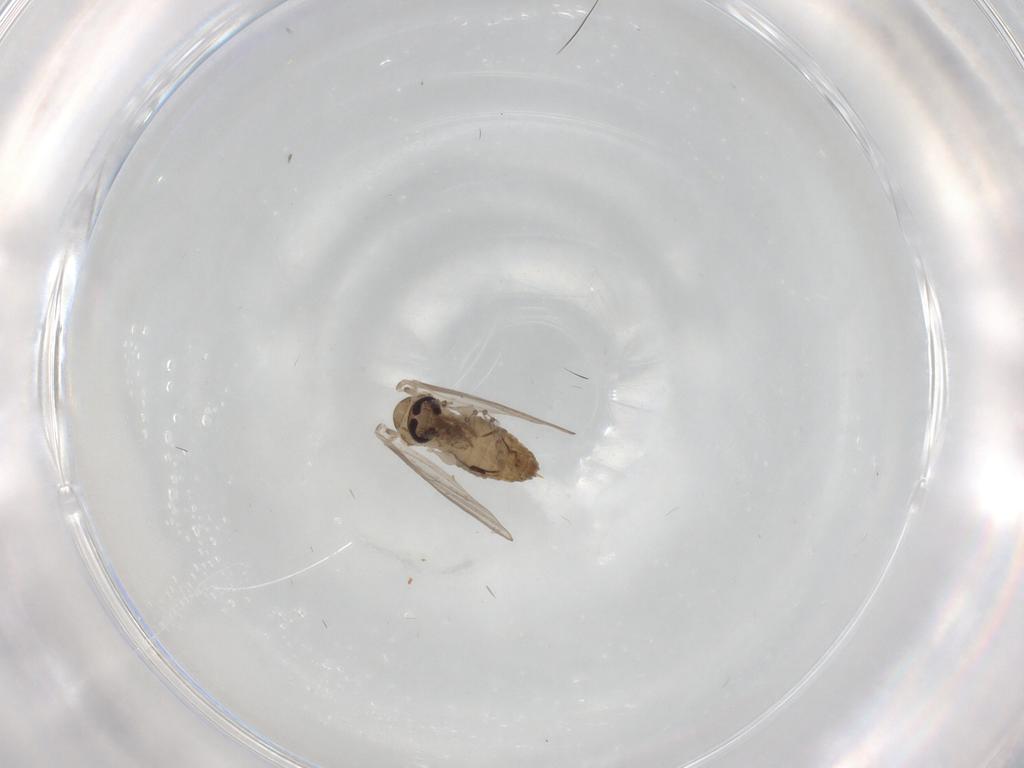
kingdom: Animalia
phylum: Arthropoda
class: Insecta
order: Diptera
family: Psychodidae
